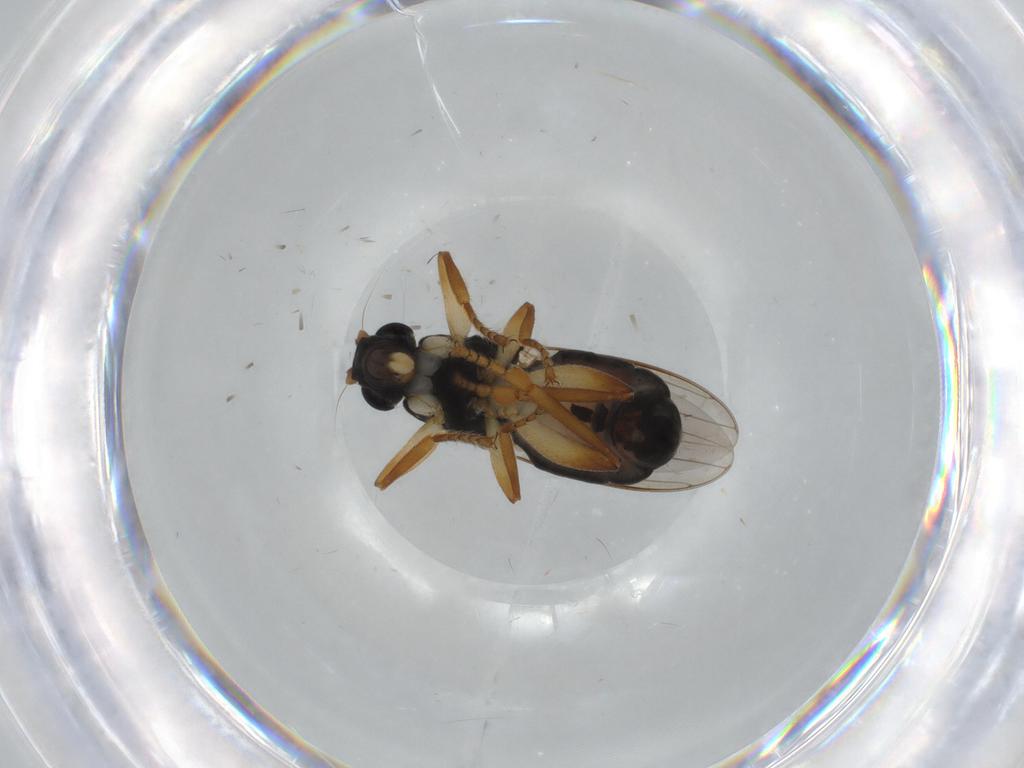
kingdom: Animalia
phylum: Arthropoda
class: Insecta
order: Diptera
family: Sphaeroceridae
